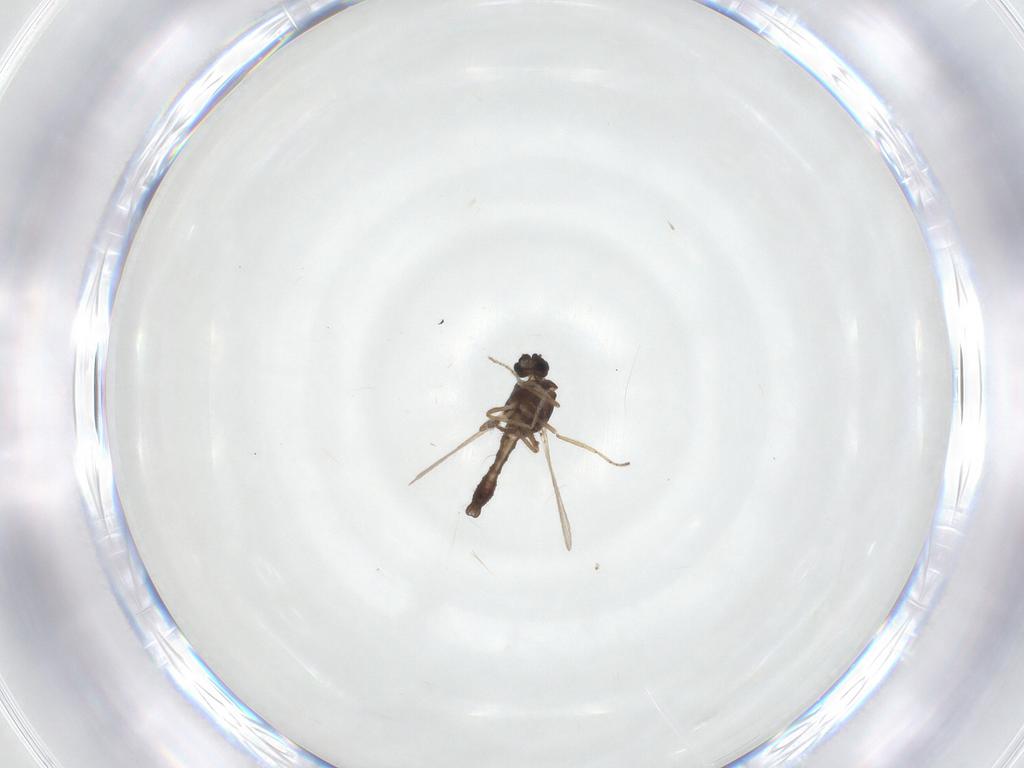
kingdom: Animalia
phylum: Arthropoda
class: Insecta
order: Diptera
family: Ceratopogonidae
